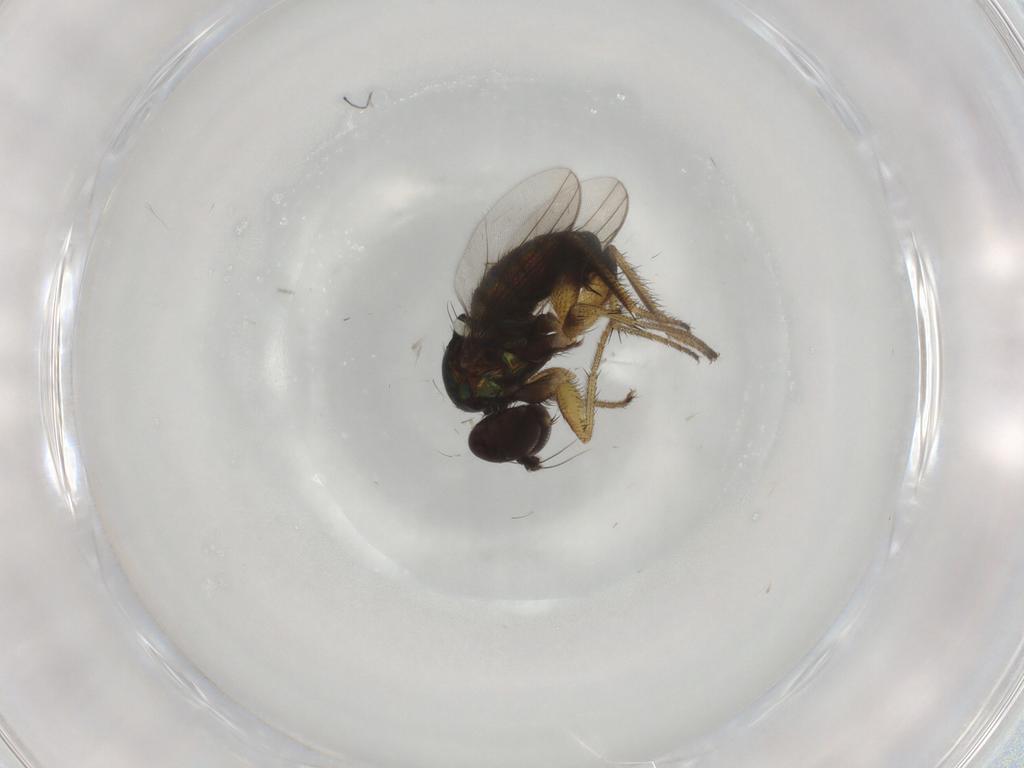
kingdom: Animalia
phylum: Arthropoda
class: Insecta
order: Diptera
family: Dolichopodidae
